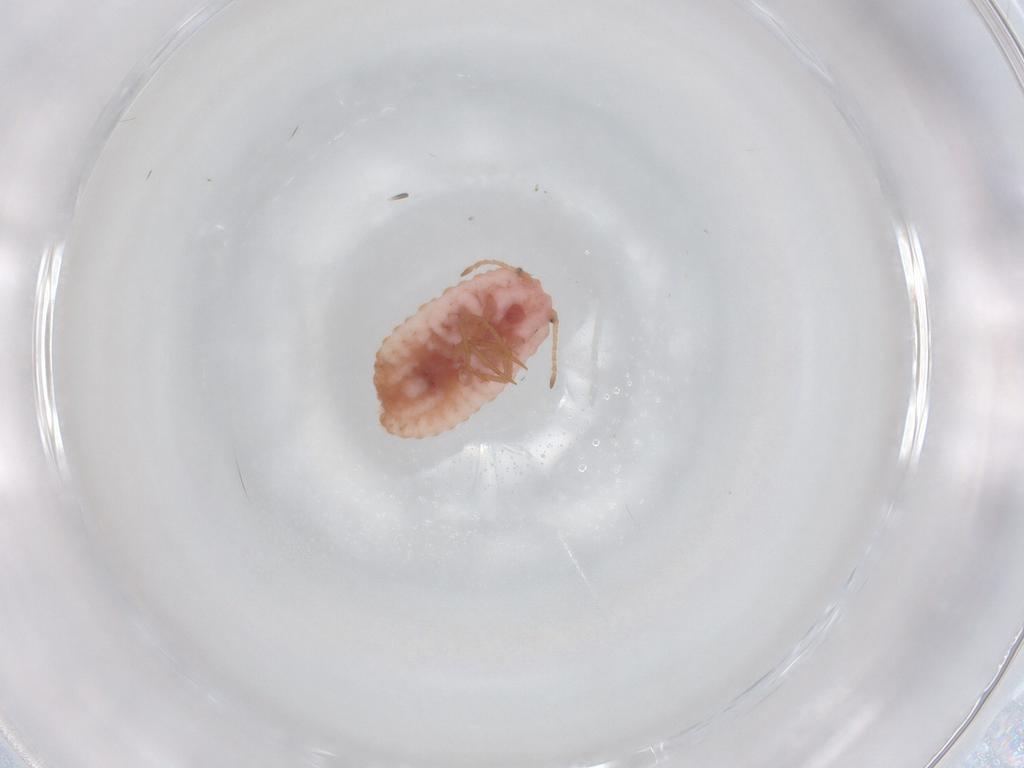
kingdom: Animalia
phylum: Arthropoda
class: Insecta
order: Hemiptera
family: Coccoidea_incertae_sedis
